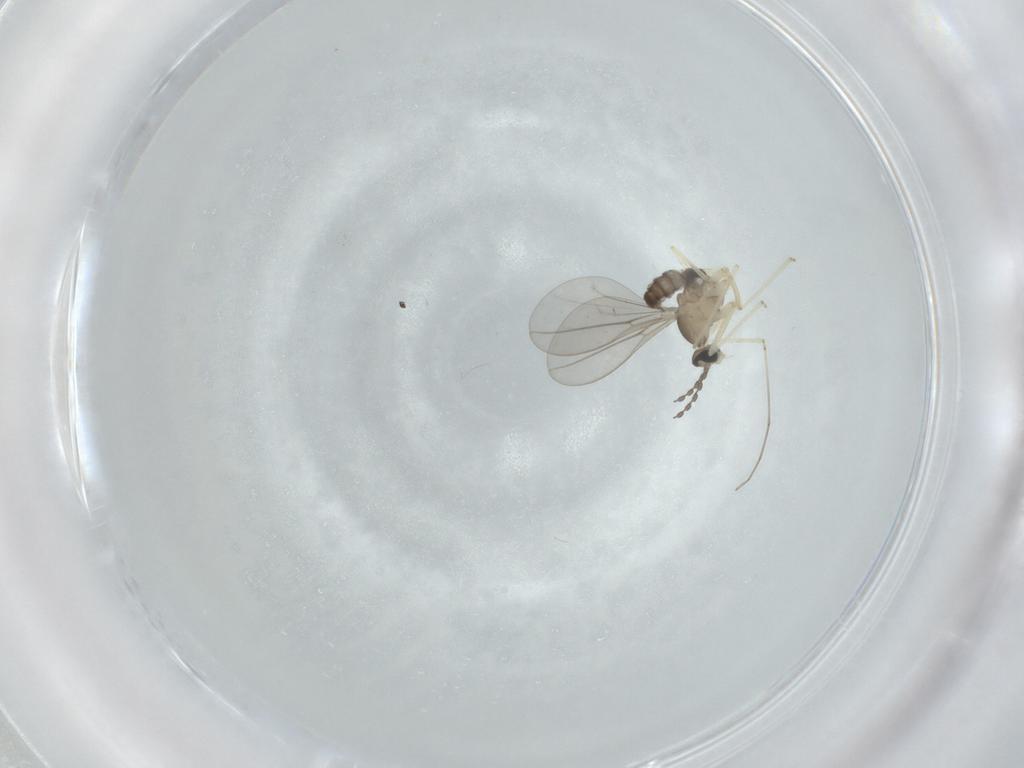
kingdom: Animalia
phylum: Arthropoda
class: Insecta
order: Diptera
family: Cecidomyiidae
